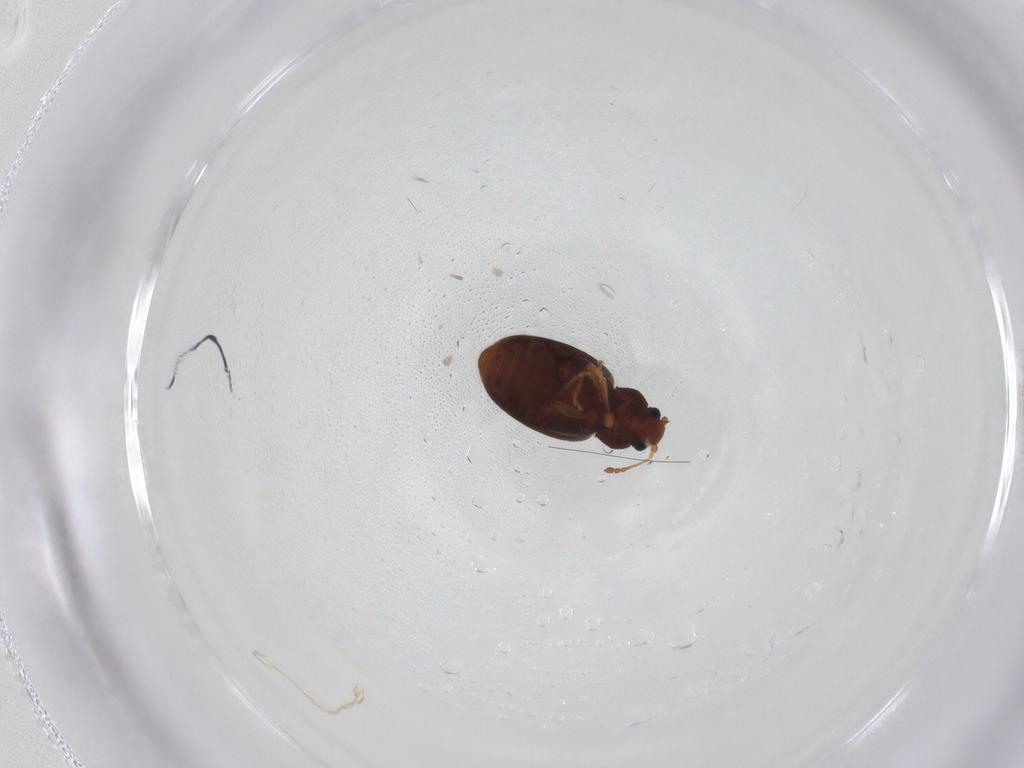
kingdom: Animalia
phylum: Arthropoda
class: Insecta
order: Coleoptera
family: Latridiidae
